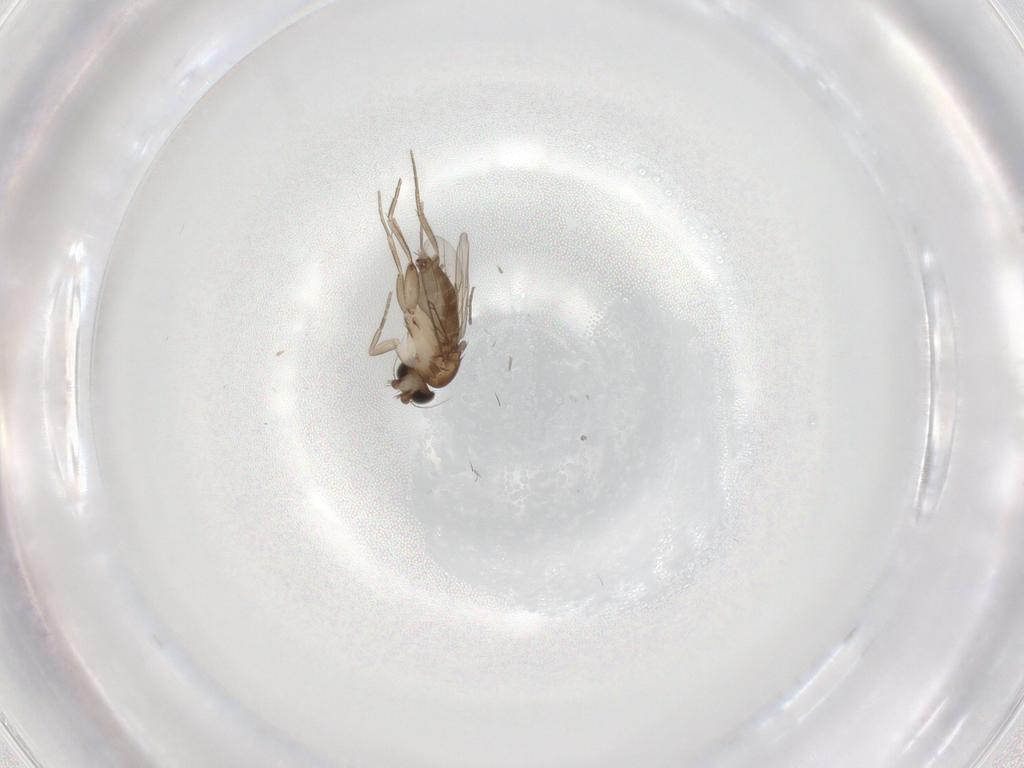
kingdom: Animalia
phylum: Arthropoda
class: Insecta
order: Diptera
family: Phoridae
